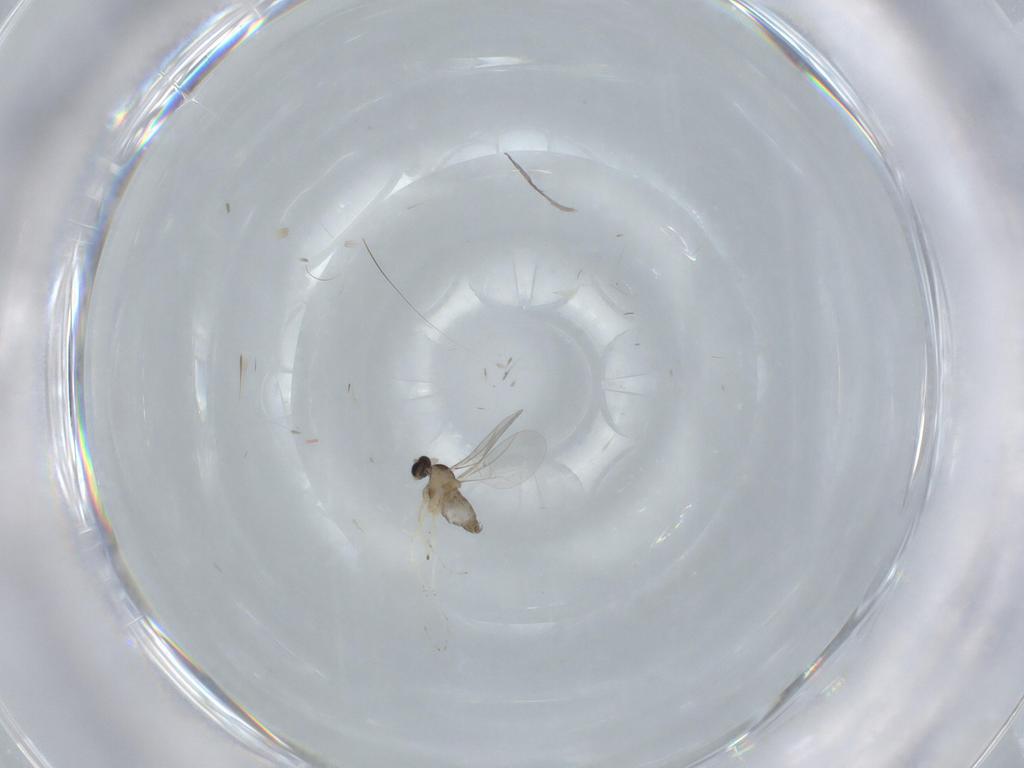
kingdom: Animalia
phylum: Arthropoda
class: Insecta
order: Diptera
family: Cecidomyiidae
